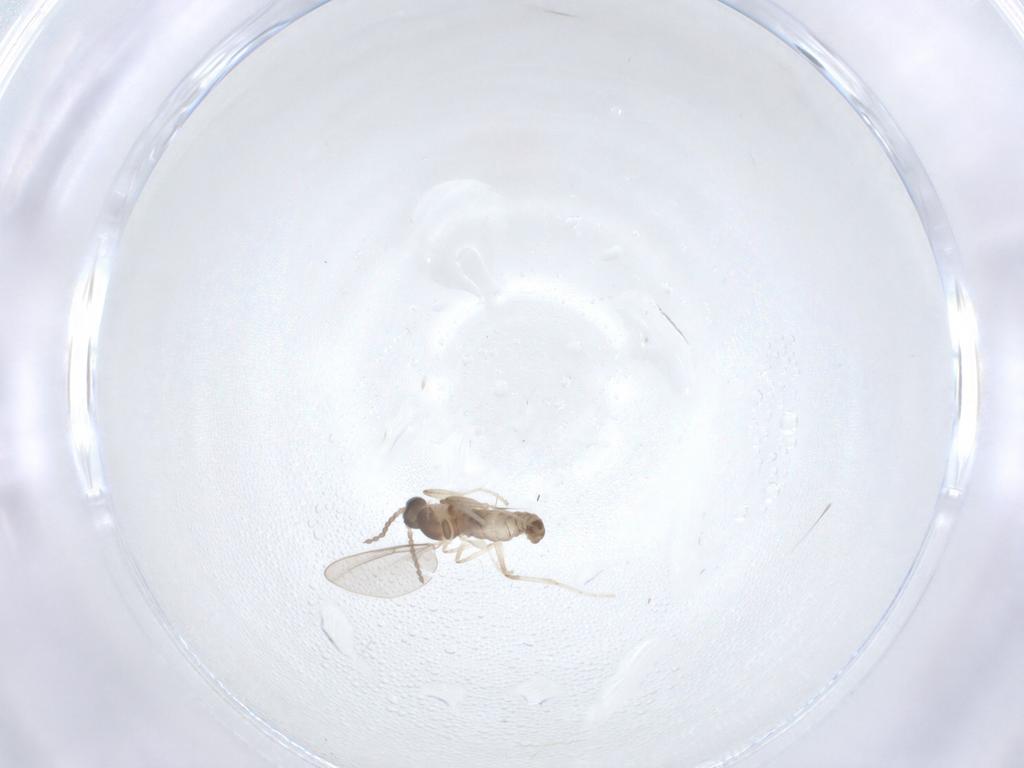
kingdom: Animalia
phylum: Arthropoda
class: Insecta
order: Diptera
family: Cecidomyiidae
